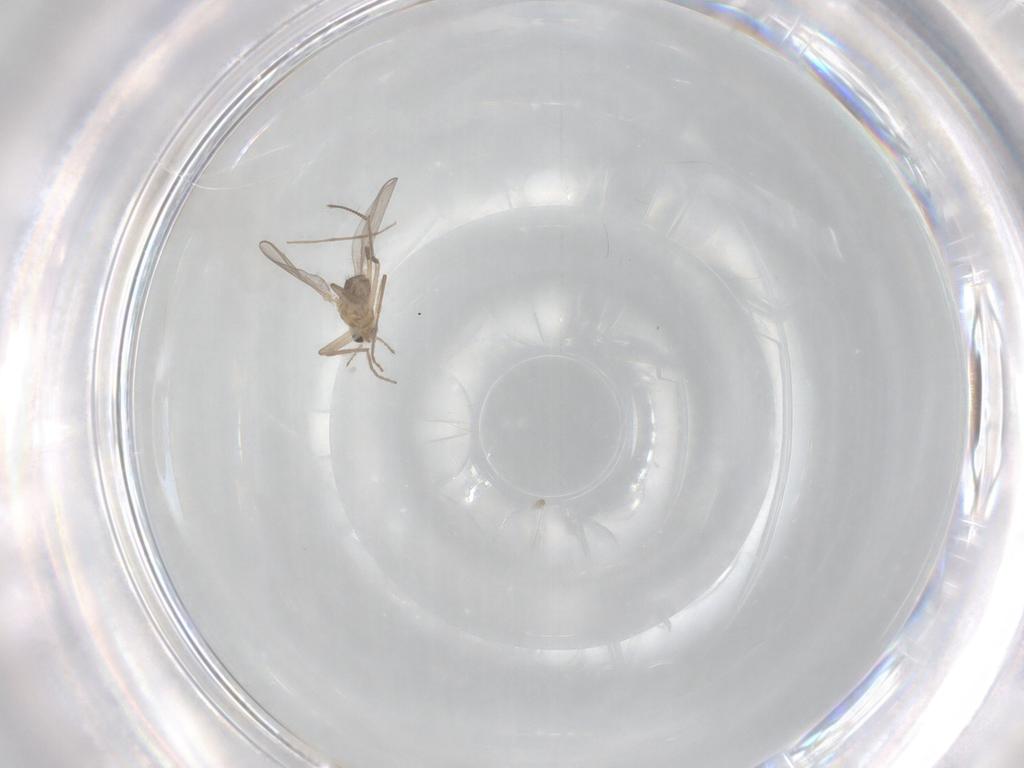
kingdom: Animalia
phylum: Arthropoda
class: Insecta
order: Diptera
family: Chironomidae
